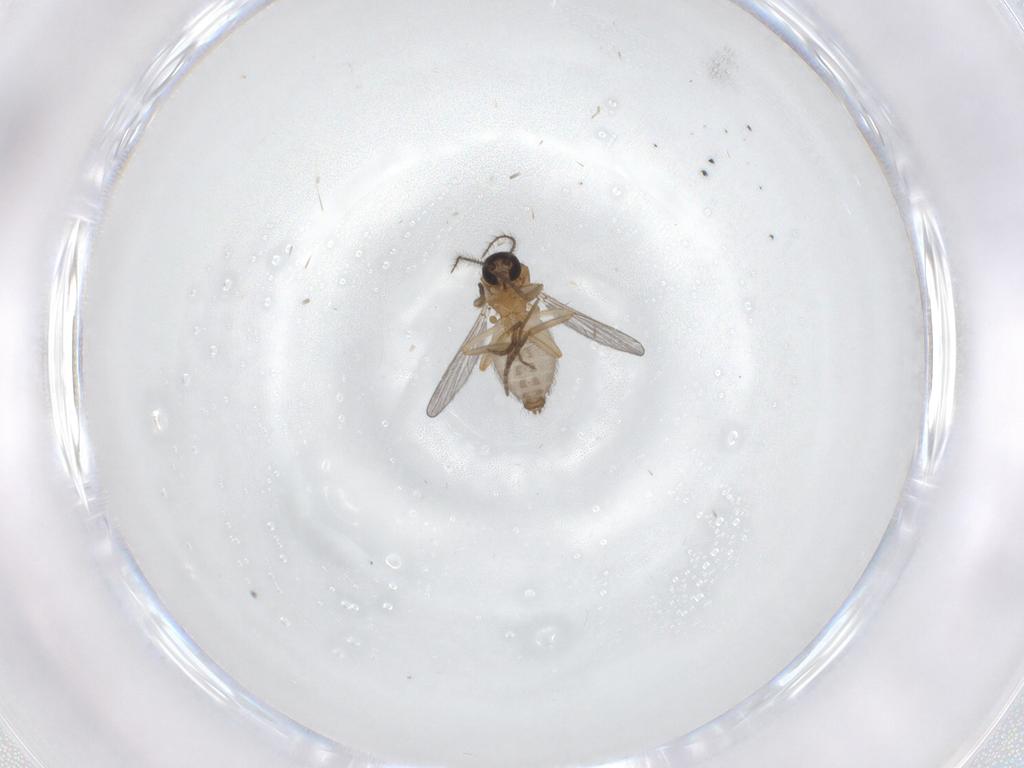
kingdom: Animalia
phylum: Arthropoda
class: Insecta
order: Diptera
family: Ceratopogonidae
